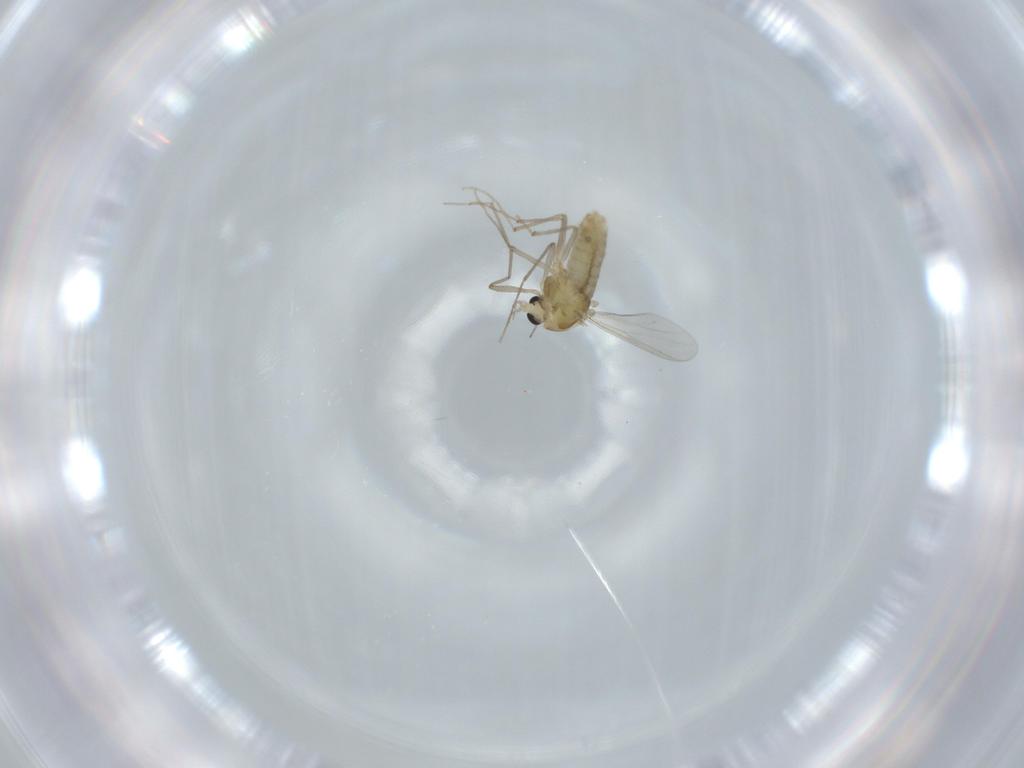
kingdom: Animalia
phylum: Arthropoda
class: Insecta
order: Diptera
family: Chironomidae
